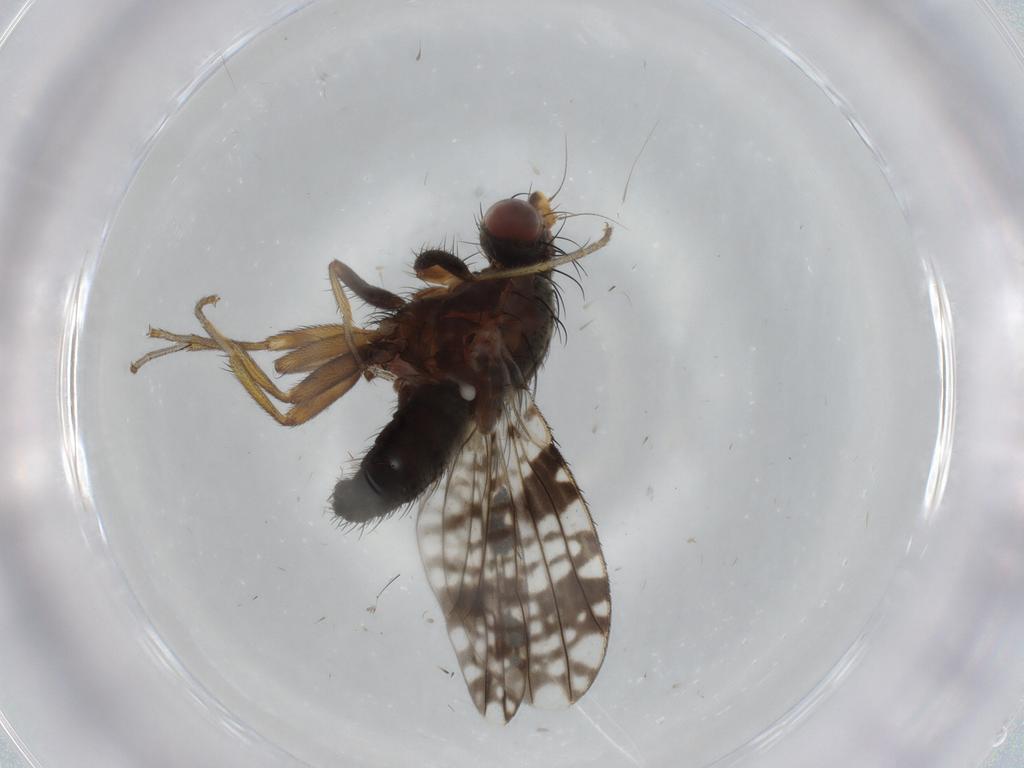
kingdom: Animalia
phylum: Arthropoda
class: Insecta
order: Diptera
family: Tephritidae
